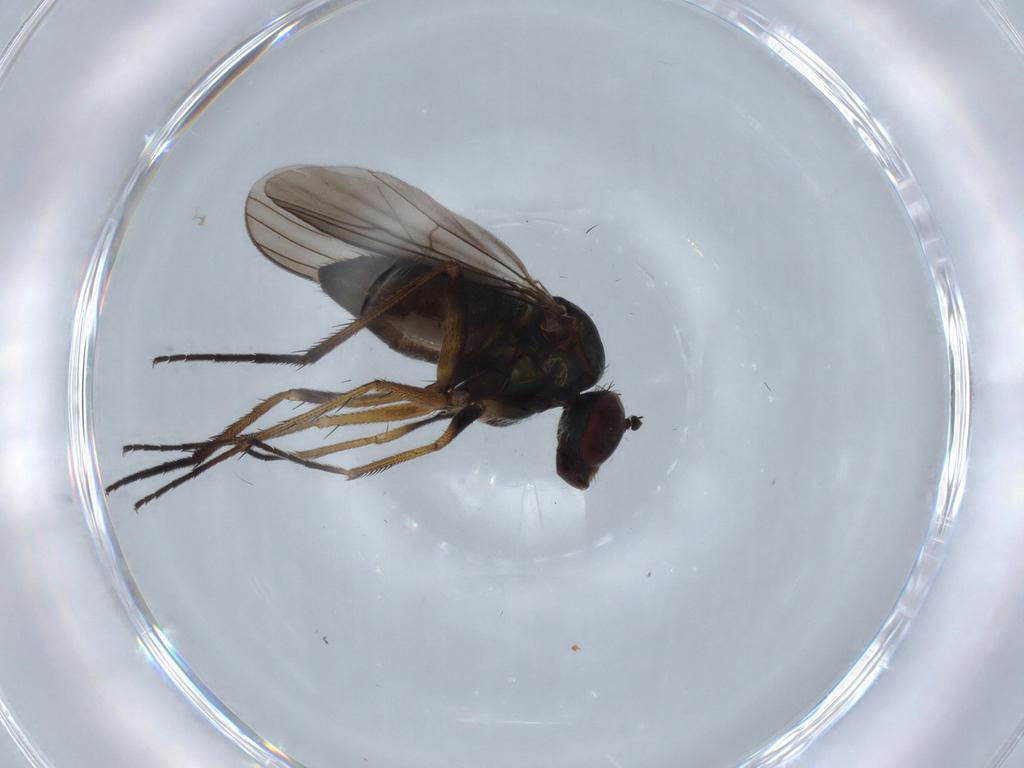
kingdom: Animalia
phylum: Arthropoda
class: Insecta
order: Diptera
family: Dolichopodidae
